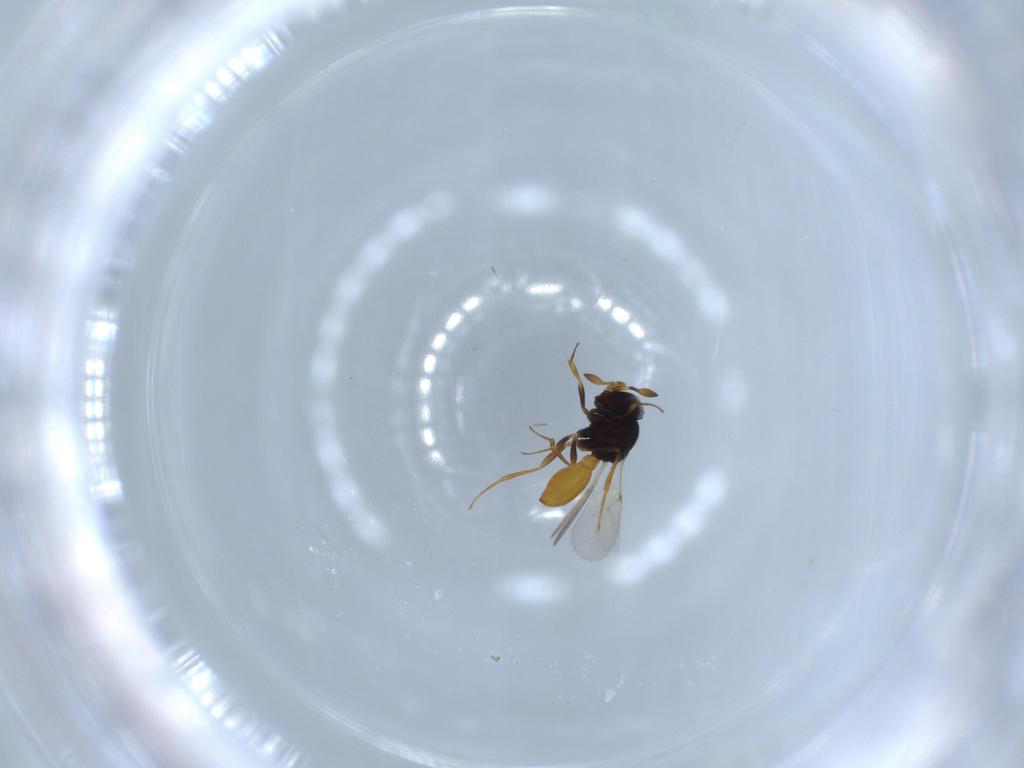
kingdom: Animalia
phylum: Arthropoda
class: Insecta
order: Hymenoptera
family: Scelionidae
